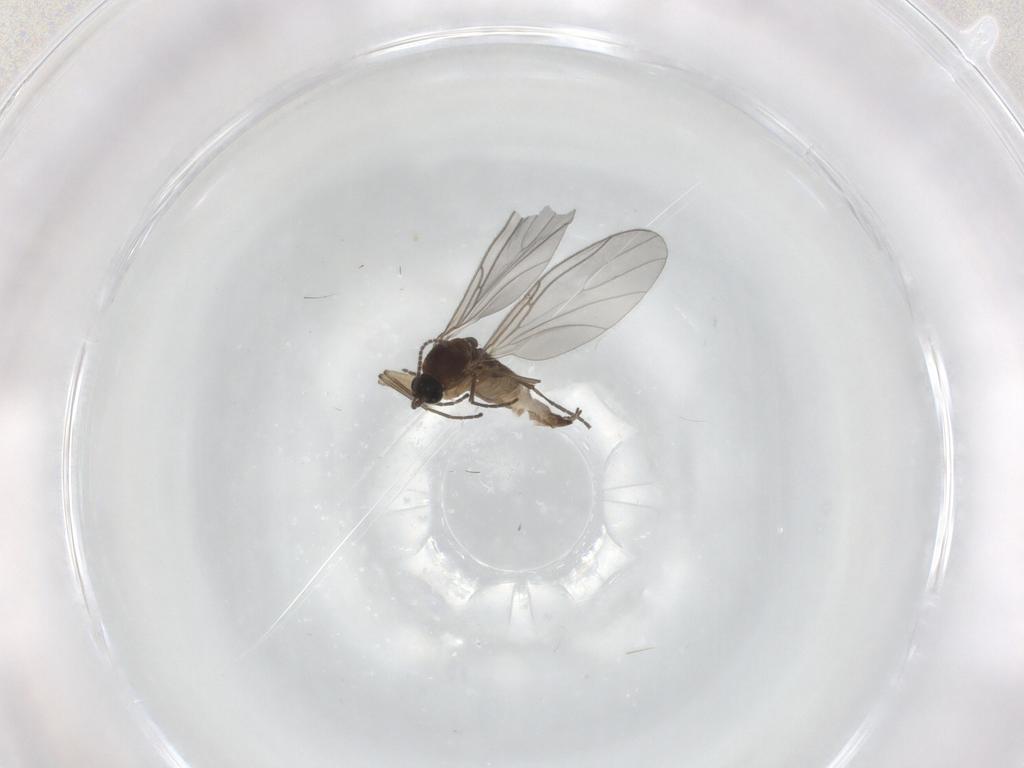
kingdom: Animalia
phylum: Arthropoda
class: Insecta
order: Diptera
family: Sciaridae
